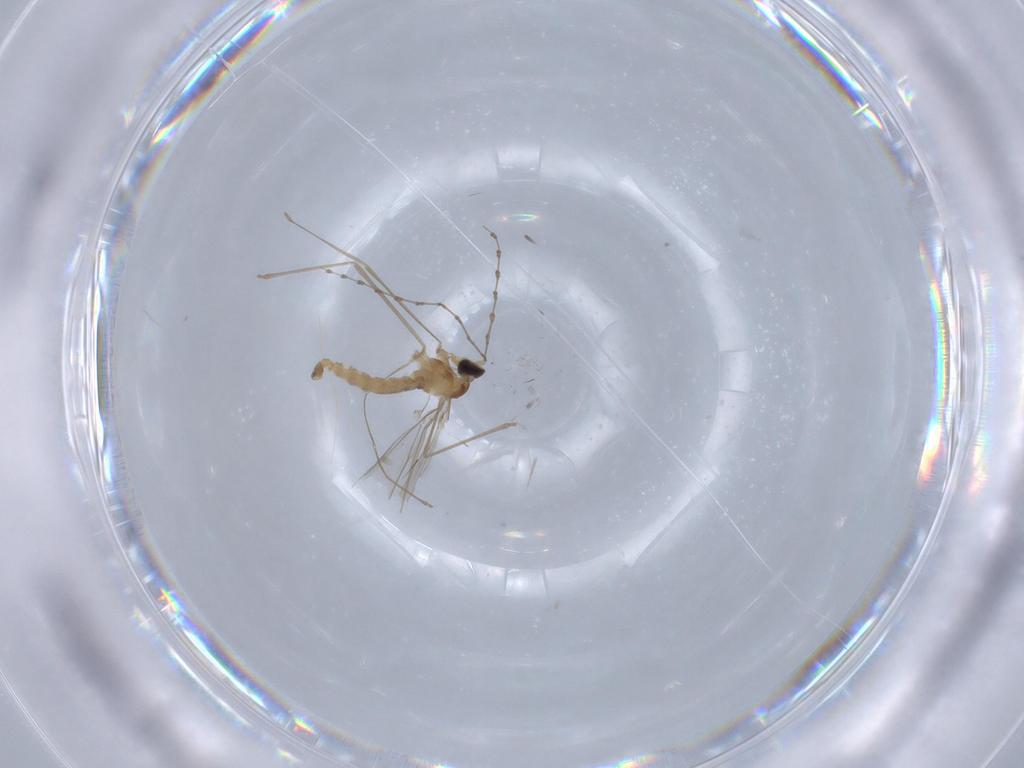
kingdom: Animalia
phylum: Arthropoda
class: Insecta
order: Diptera
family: Cecidomyiidae
